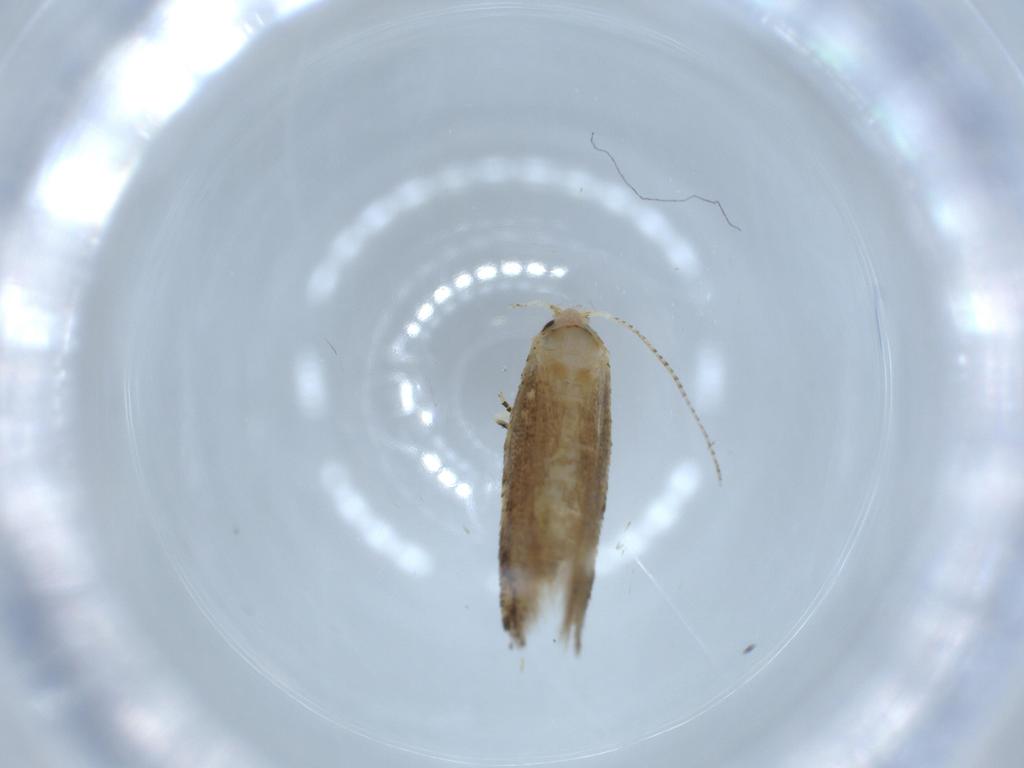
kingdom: Animalia
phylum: Arthropoda
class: Insecta
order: Lepidoptera
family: Bucculatricidae
